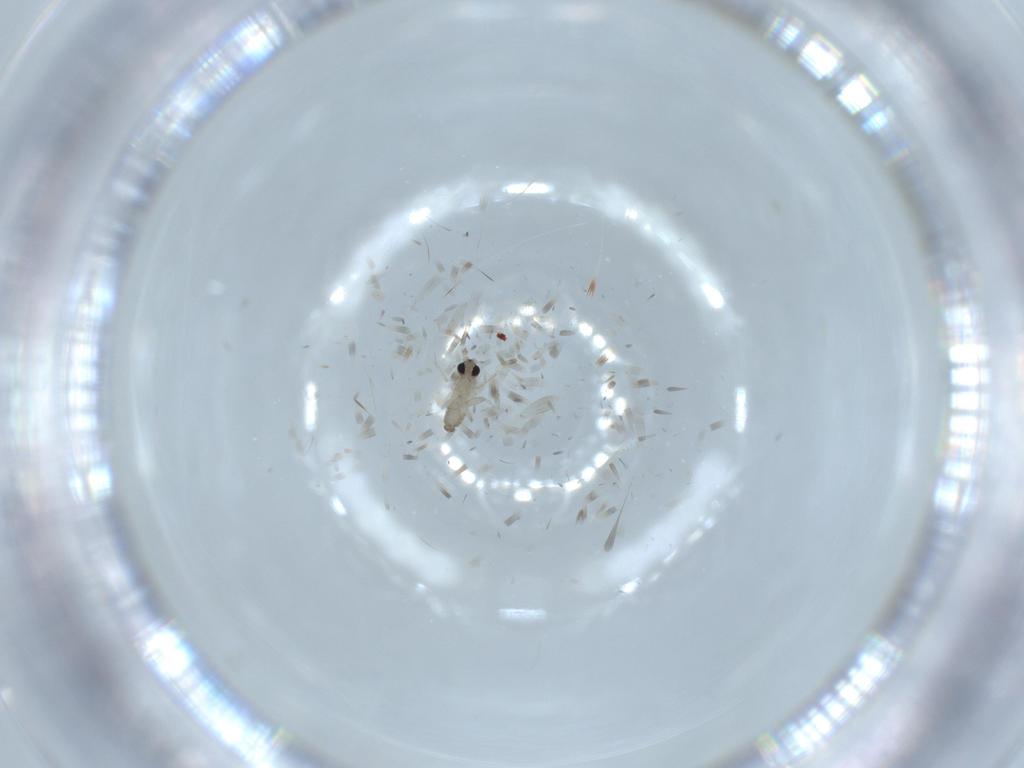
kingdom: Animalia
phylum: Arthropoda
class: Insecta
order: Diptera
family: Cecidomyiidae
